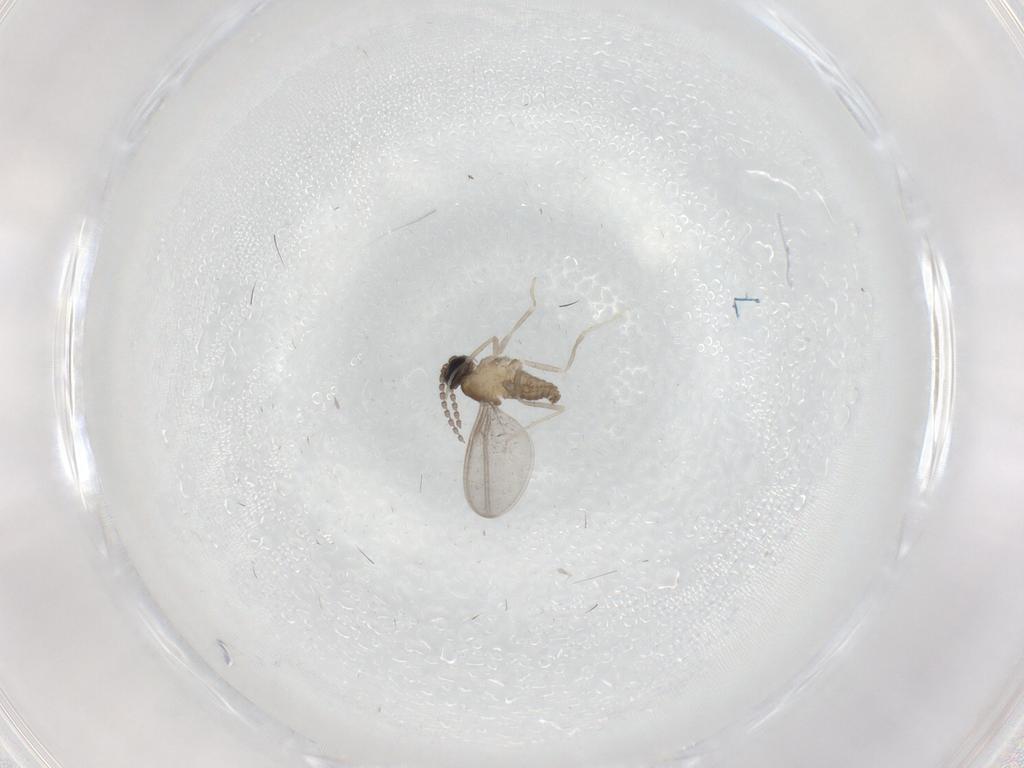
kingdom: Animalia
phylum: Arthropoda
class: Insecta
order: Diptera
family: Cecidomyiidae
